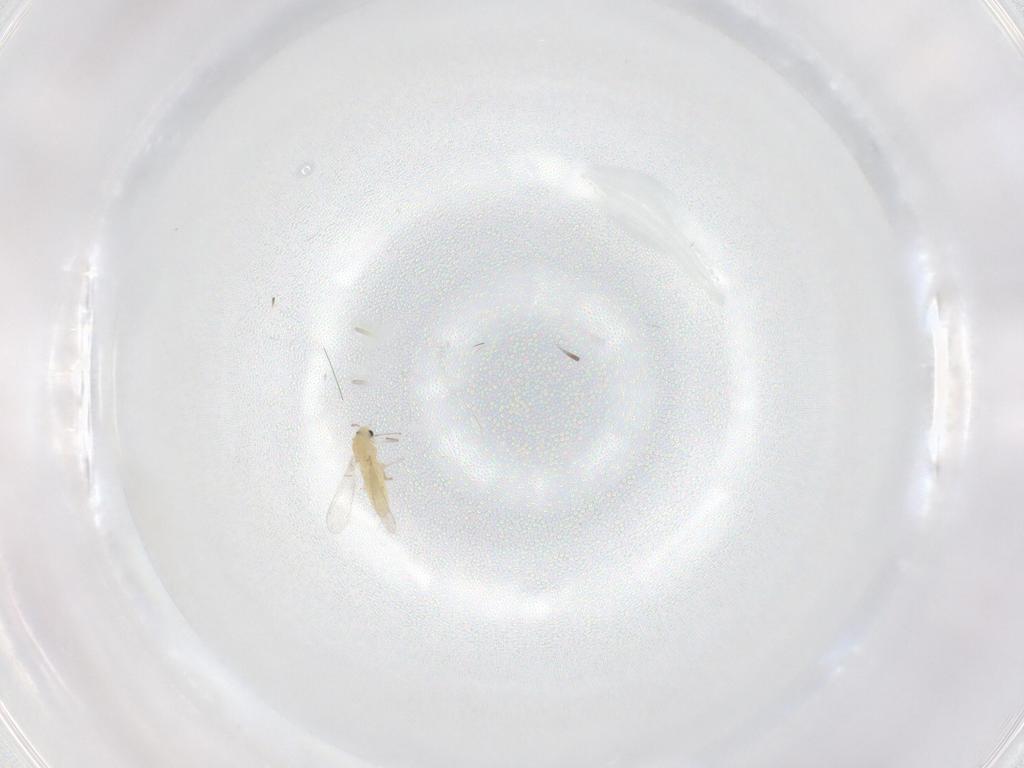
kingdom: Animalia
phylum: Arthropoda
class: Insecta
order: Diptera
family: Chironomidae
